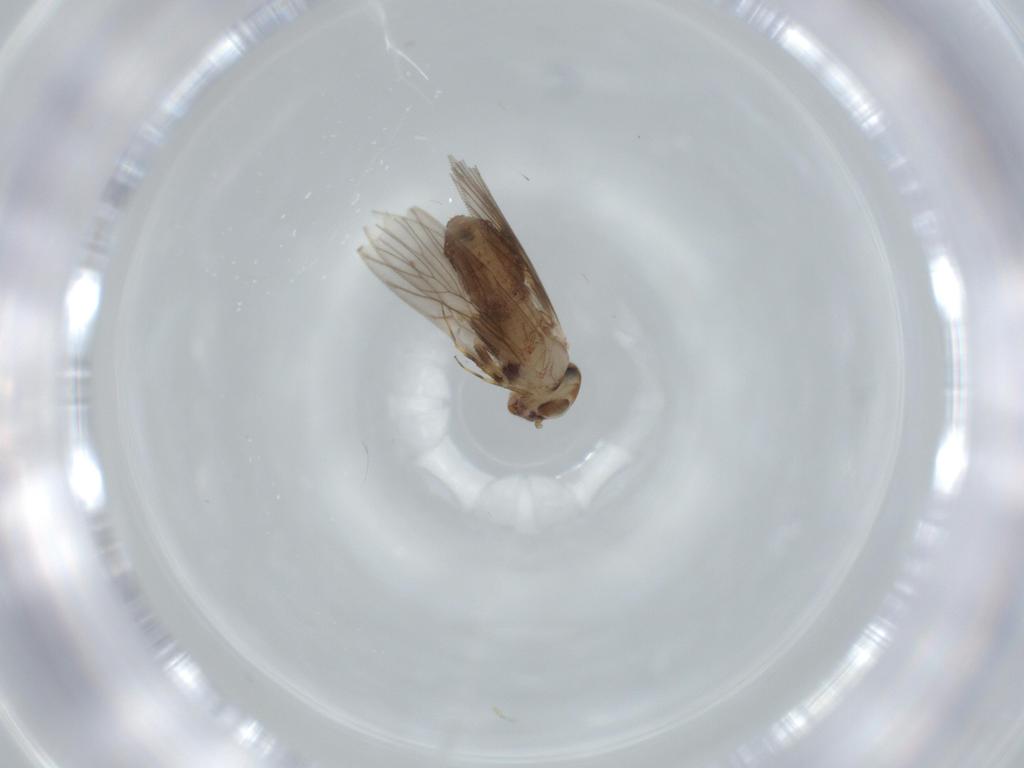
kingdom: Animalia
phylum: Arthropoda
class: Insecta
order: Psocodea
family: Lepidopsocidae
